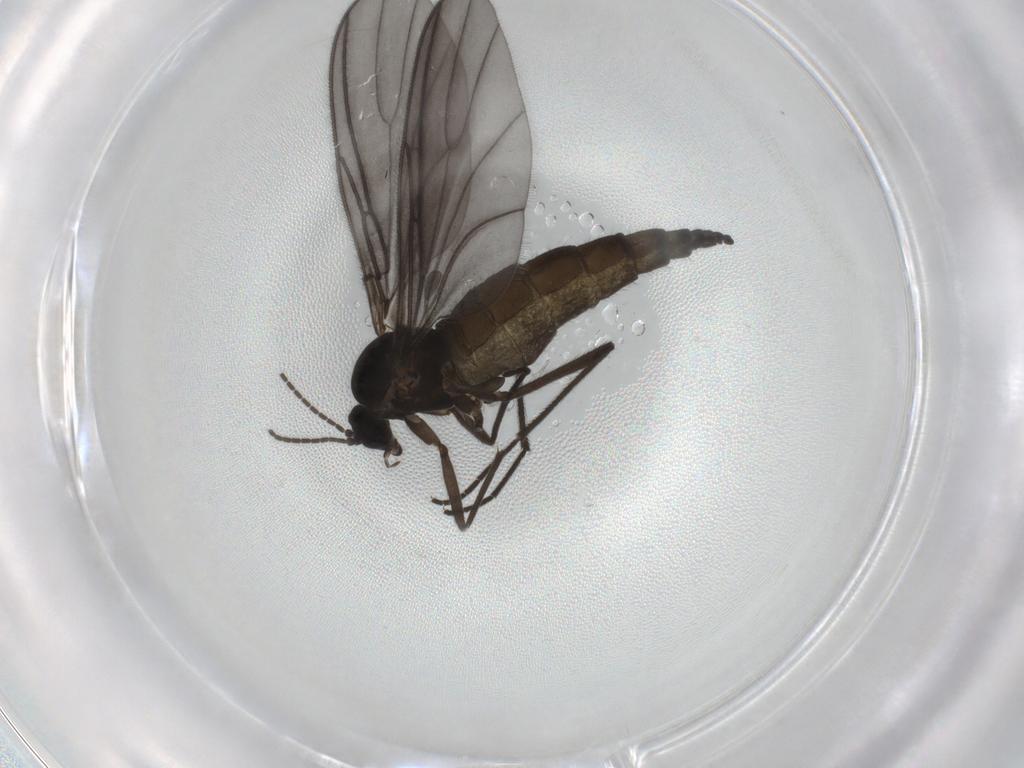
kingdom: Animalia
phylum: Arthropoda
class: Insecta
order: Diptera
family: Sciaridae
